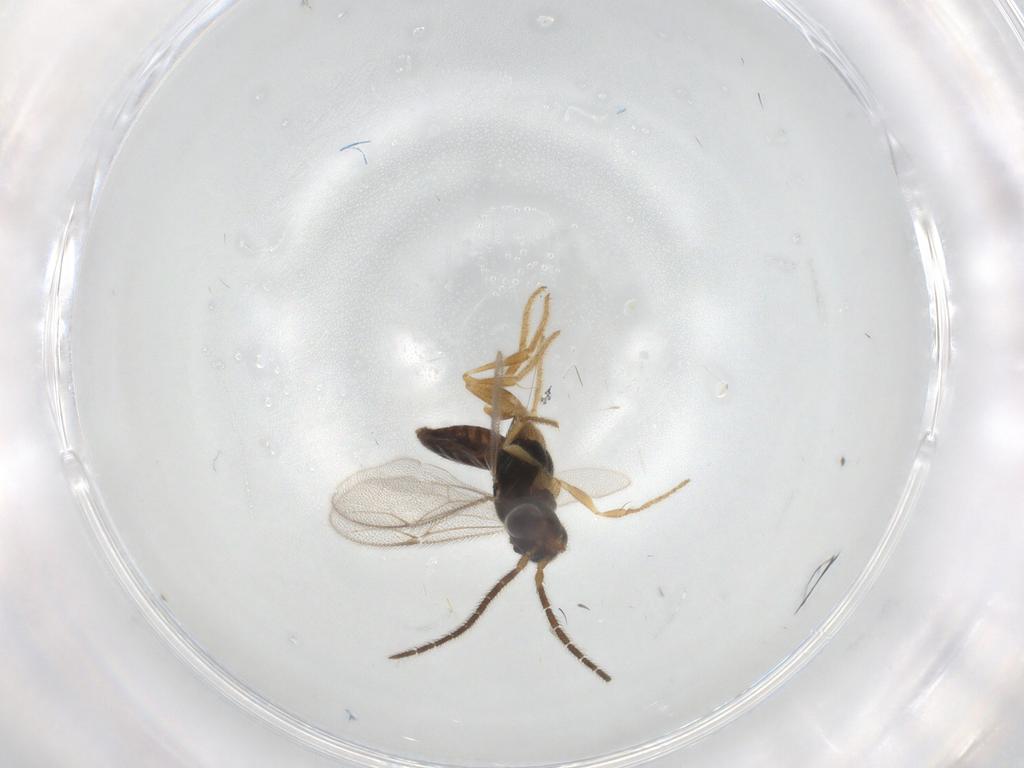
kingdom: Animalia
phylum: Arthropoda
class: Insecta
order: Hymenoptera
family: Dryinidae
